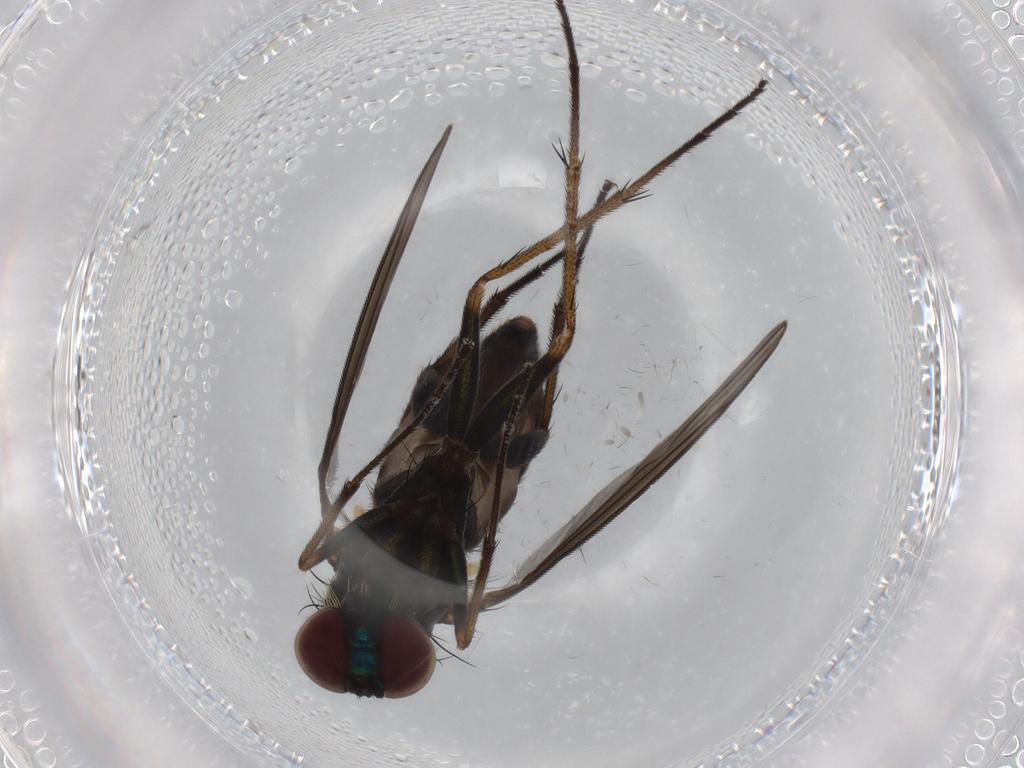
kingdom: Animalia
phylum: Arthropoda
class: Insecta
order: Diptera
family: Dolichopodidae
